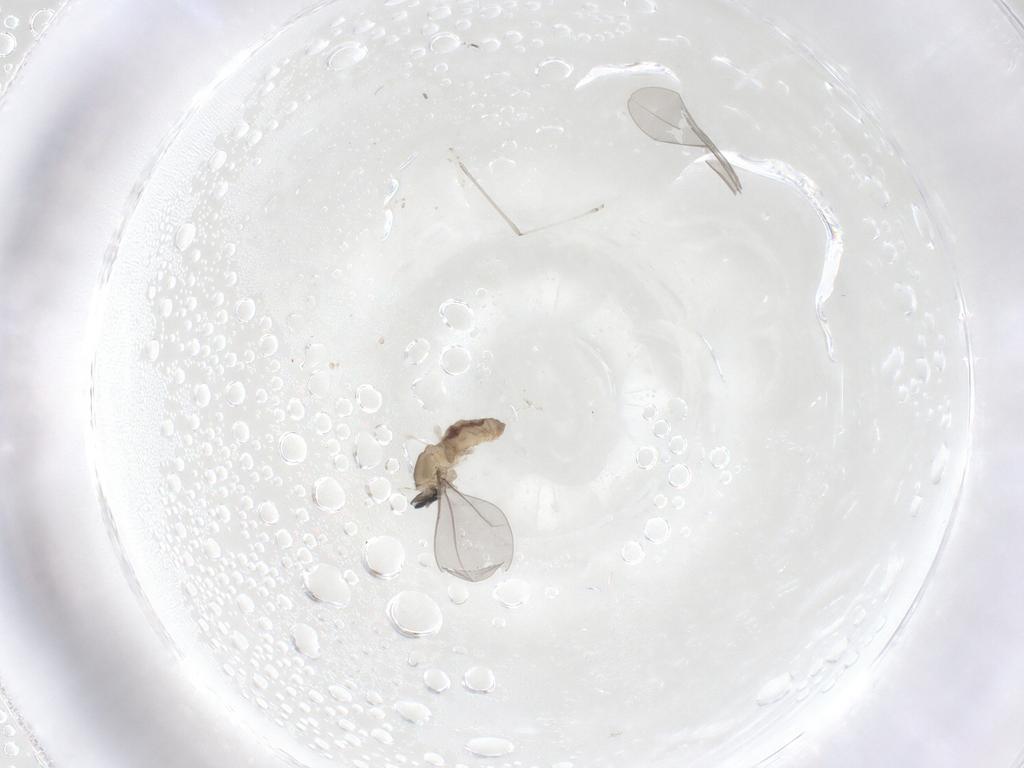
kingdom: Animalia
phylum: Arthropoda
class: Insecta
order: Diptera
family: Cecidomyiidae
